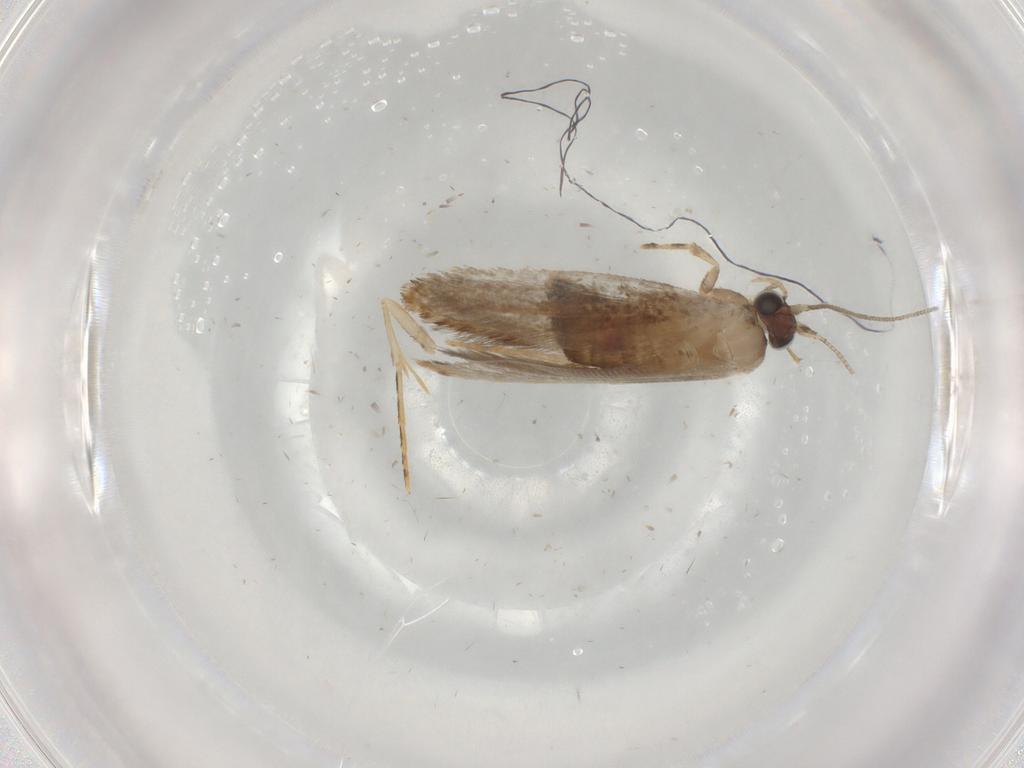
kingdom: Animalia
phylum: Arthropoda
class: Insecta
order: Lepidoptera
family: Tineidae
